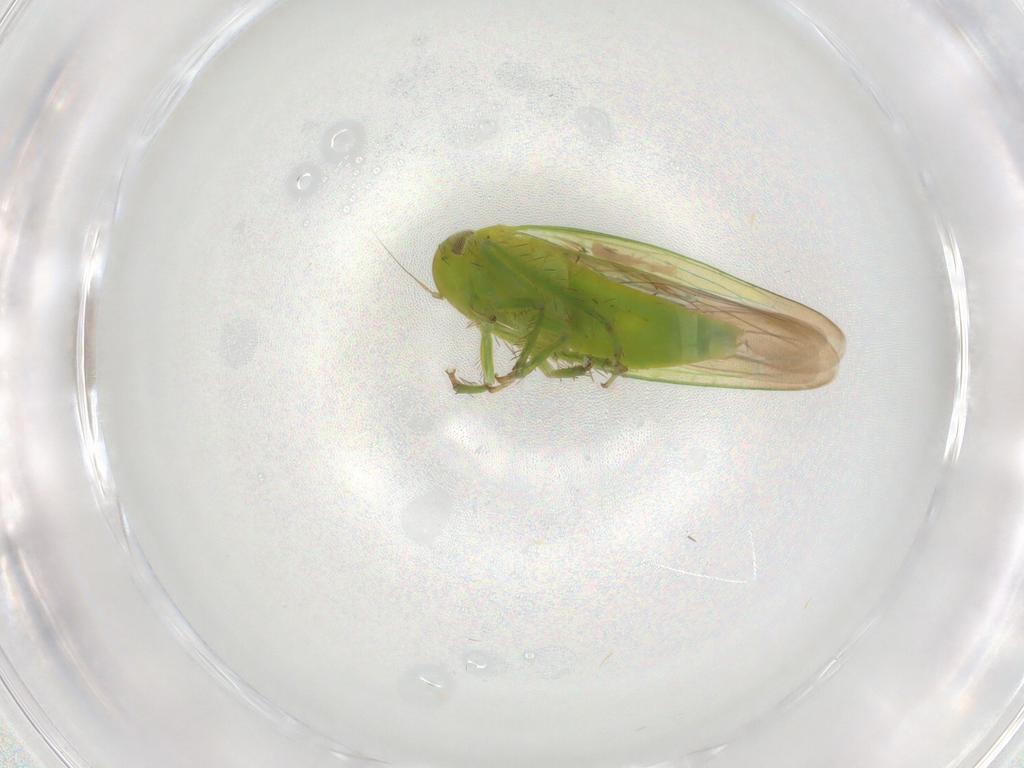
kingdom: Animalia
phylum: Arthropoda
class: Insecta
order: Hemiptera
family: Cicadellidae
